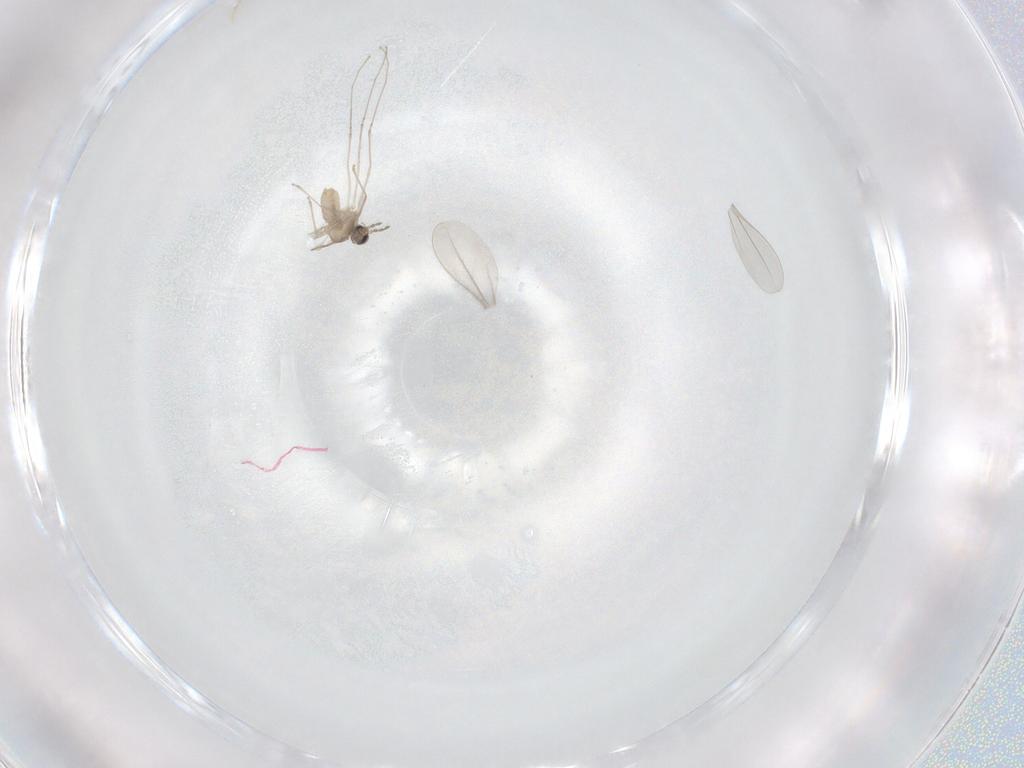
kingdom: Animalia
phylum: Arthropoda
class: Insecta
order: Diptera
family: Cecidomyiidae
